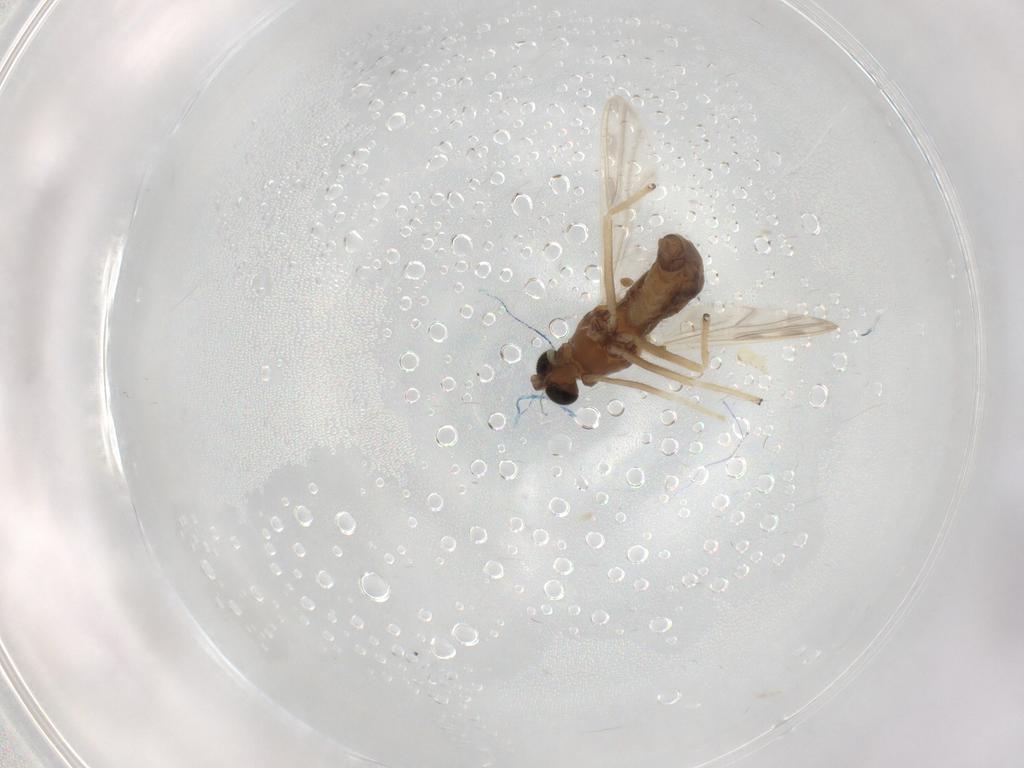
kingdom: Animalia
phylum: Arthropoda
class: Insecta
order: Diptera
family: Chironomidae
